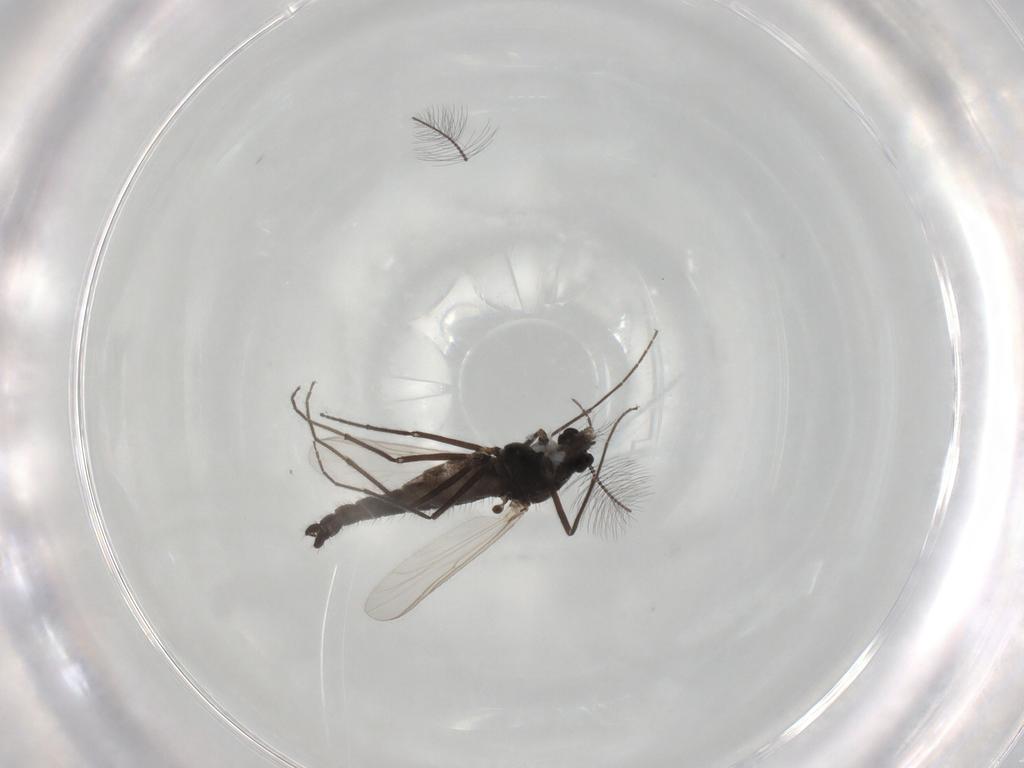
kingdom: Animalia
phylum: Arthropoda
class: Insecta
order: Diptera
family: Chironomidae
